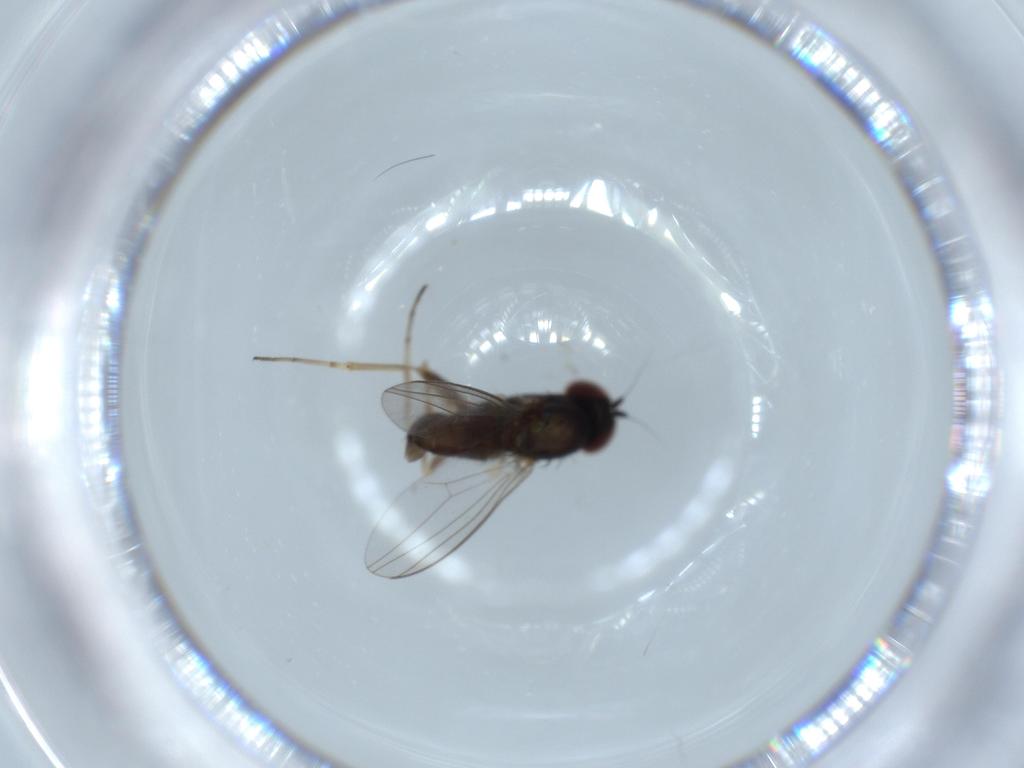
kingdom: Animalia
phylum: Arthropoda
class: Insecta
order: Diptera
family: Dolichopodidae
